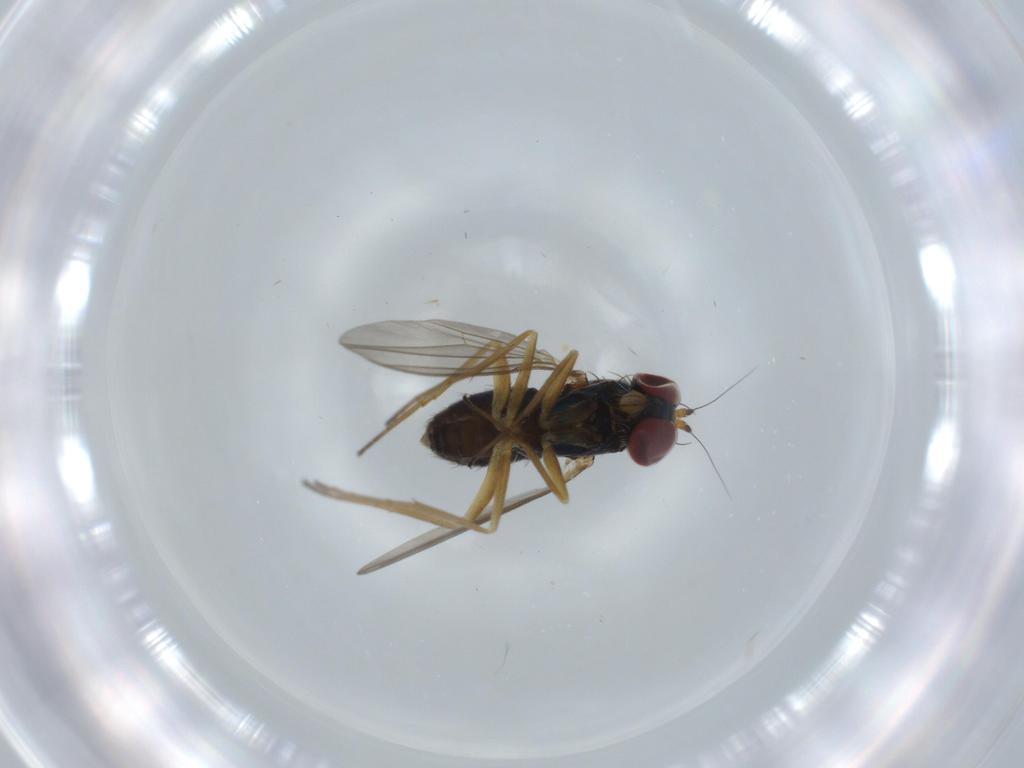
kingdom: Animalia
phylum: Arthropoda
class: Insecta
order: Diptera
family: Dolichopodidae
